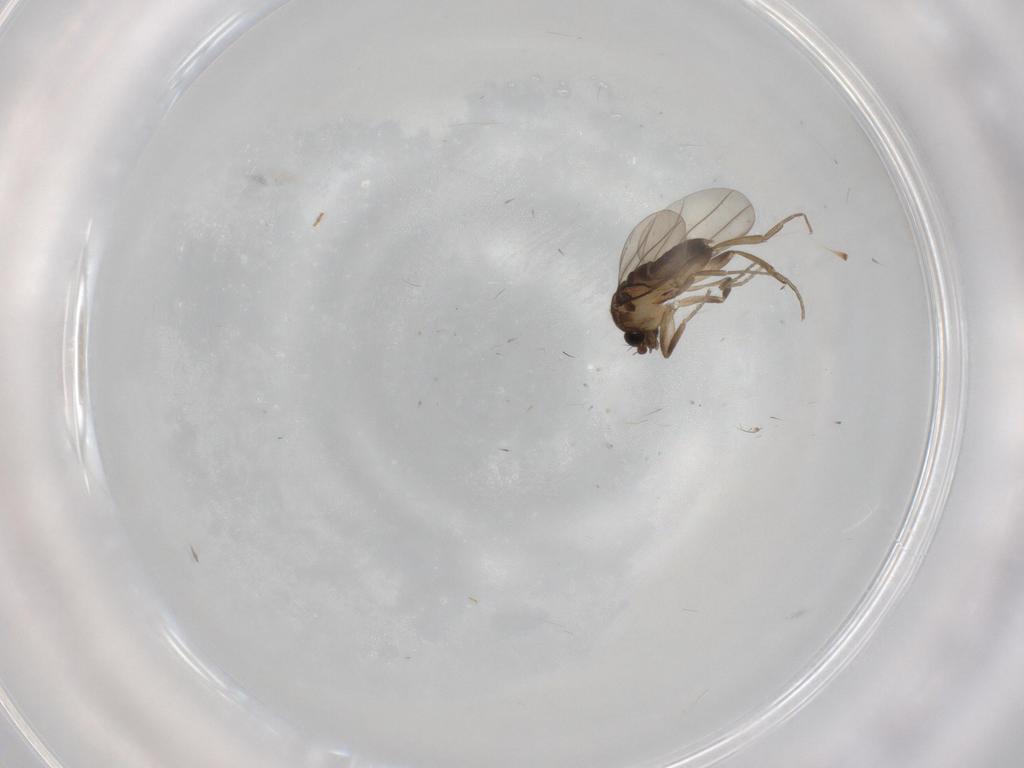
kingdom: Animalia
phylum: Arthropoda
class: Insecta
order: Diptera
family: Phoridae
